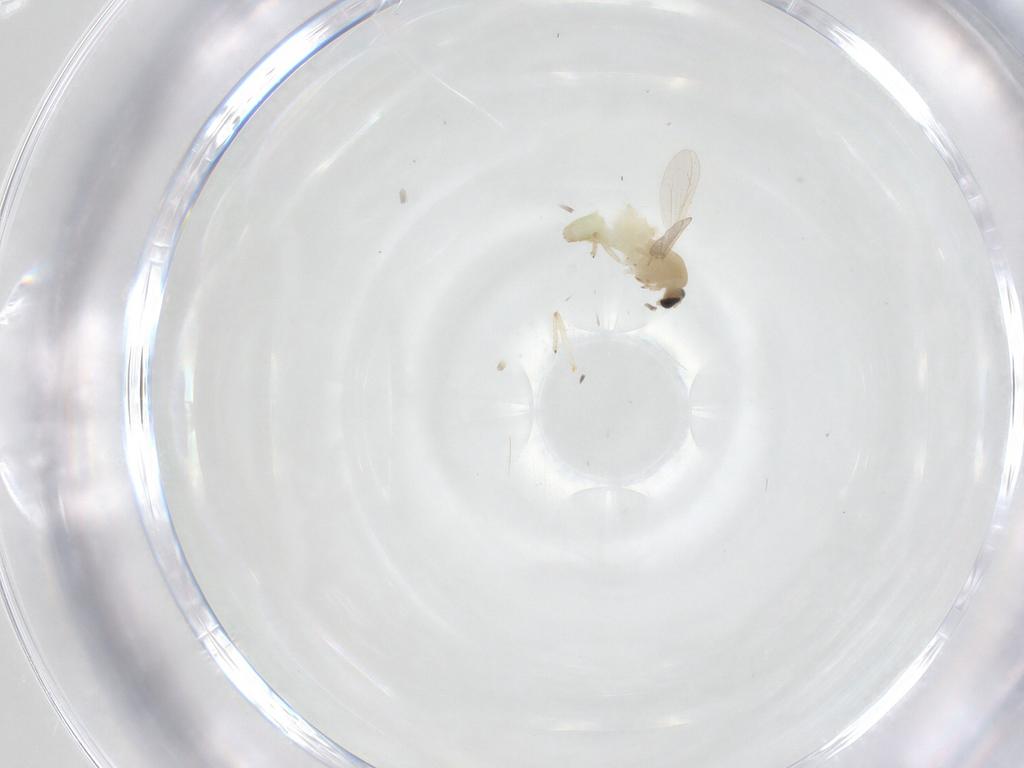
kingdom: Animalia
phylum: Arthropoda
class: Insecta
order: Diptera
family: Chironomidae
